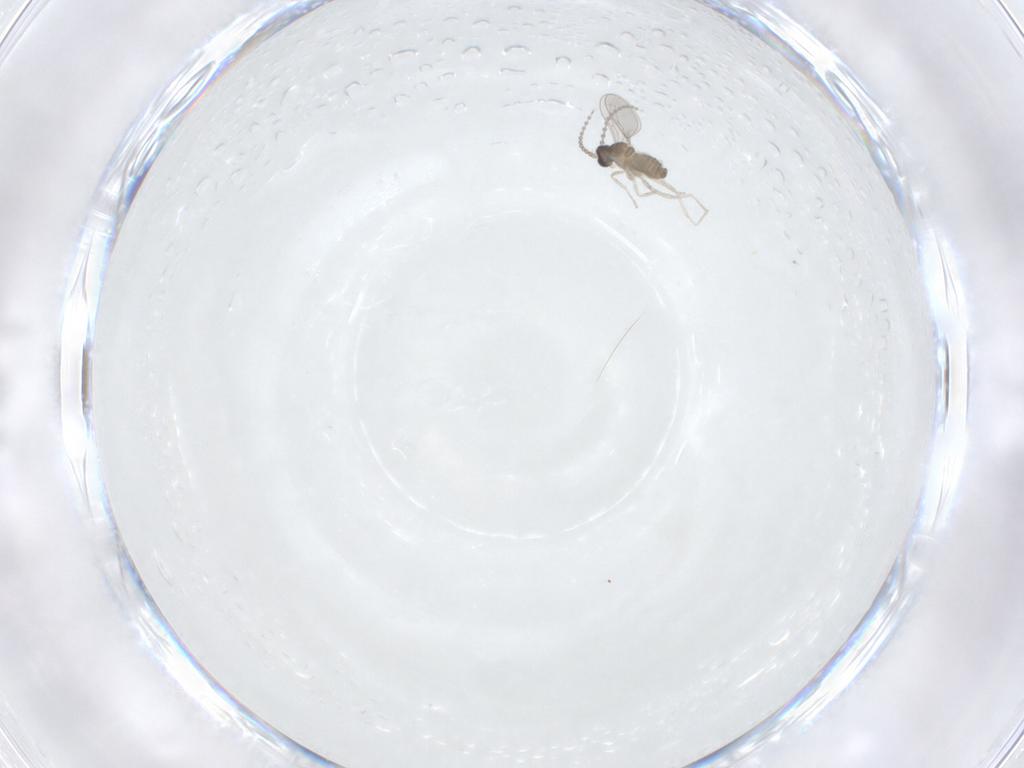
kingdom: Animalia
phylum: Arthropoda
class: Insecta
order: Diptera
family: Cecidomyiidae
